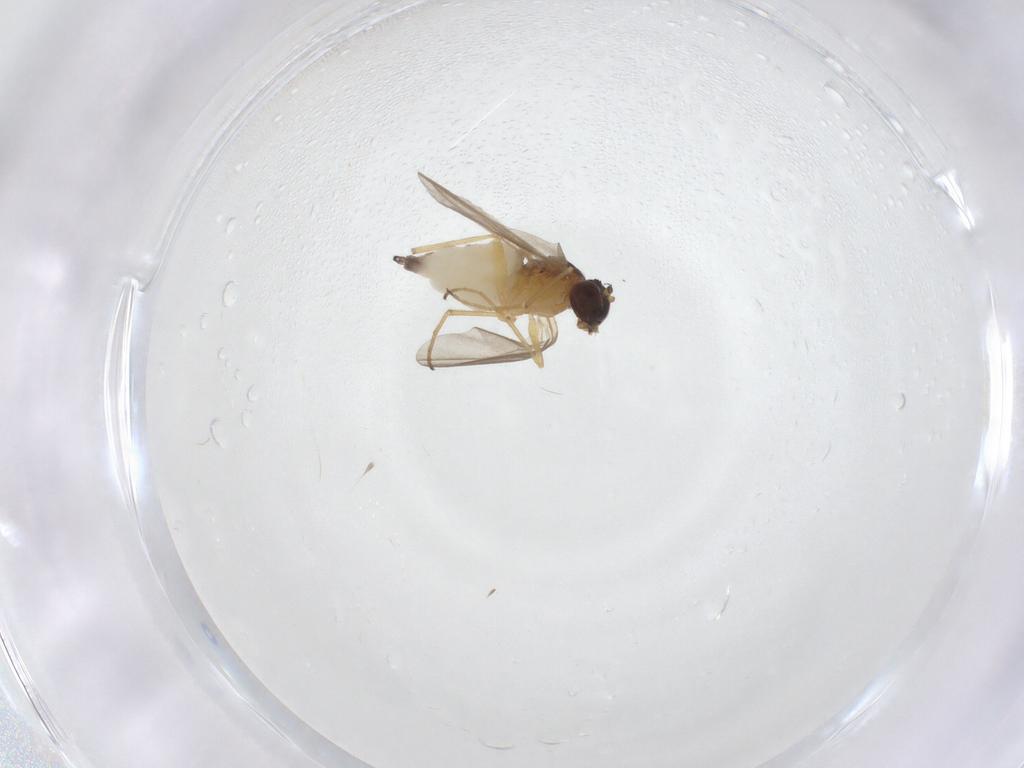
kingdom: Animalia
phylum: Arthropoda
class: Insecta
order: Diptera
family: Dolichopodidae
